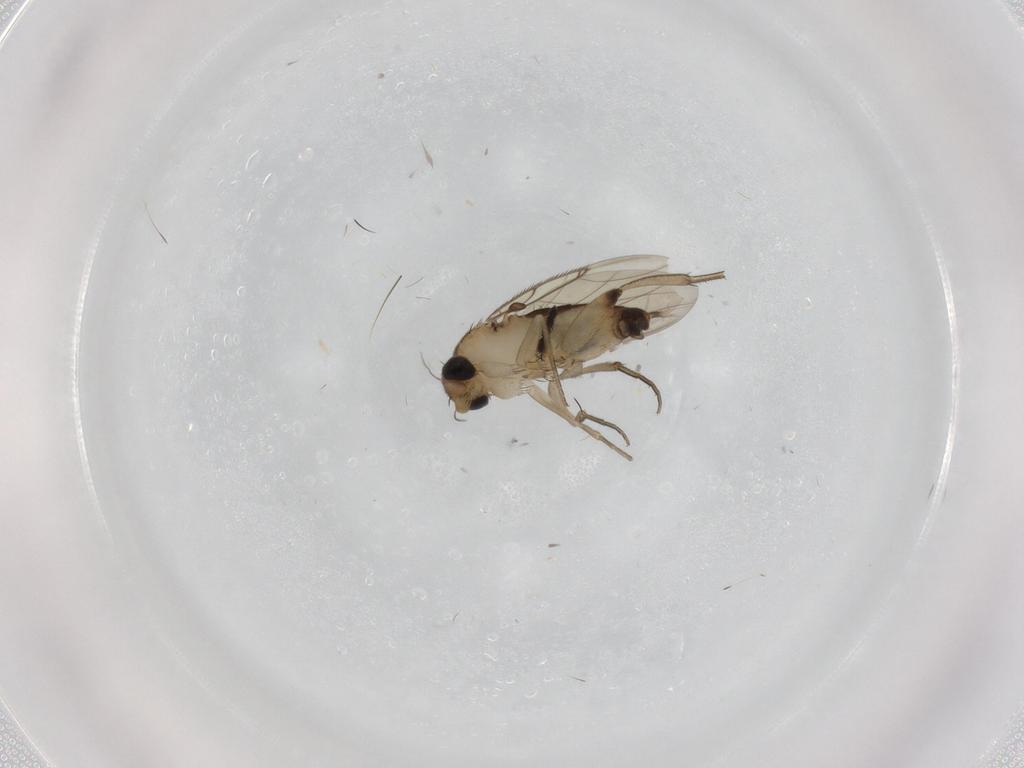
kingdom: Animalia
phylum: Arthropoda
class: Insecta
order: Diptera
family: Phoridae
